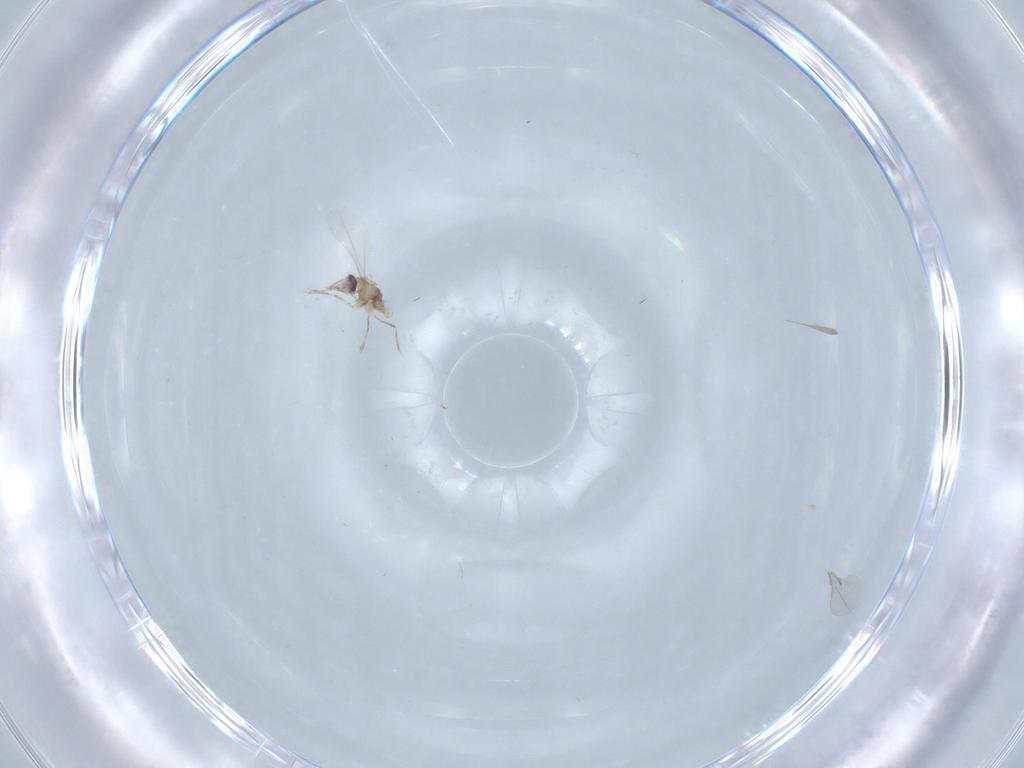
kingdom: Animalia
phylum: Arthropoda
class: Insecta
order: Diptera
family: Cecidomyiidae
